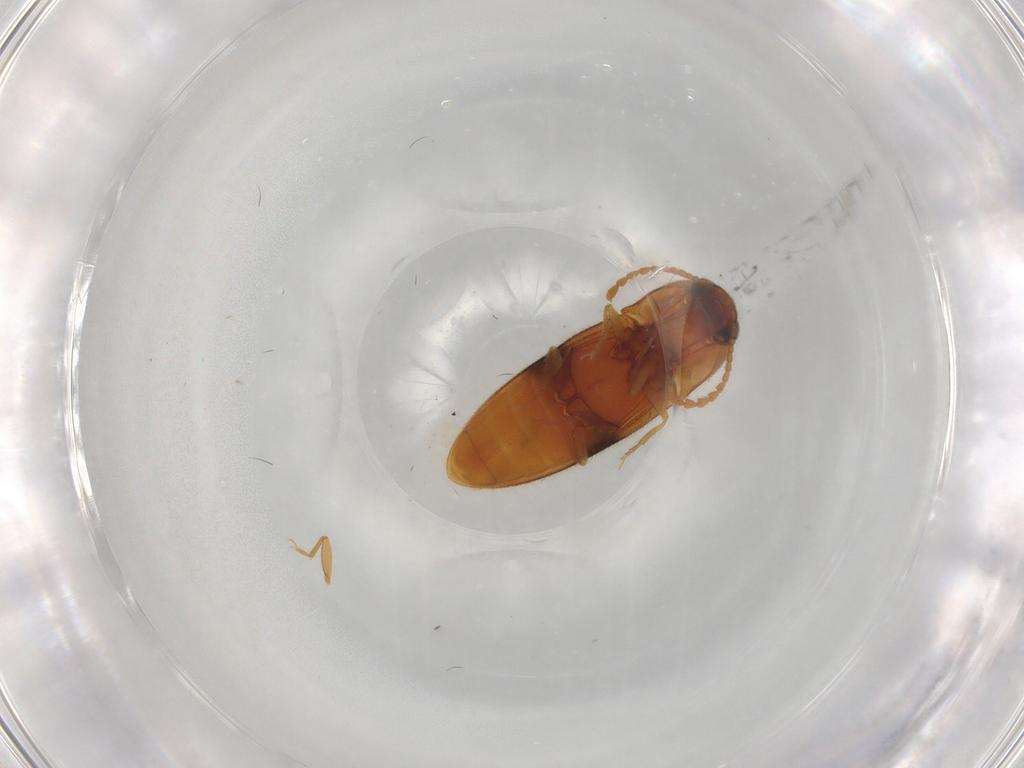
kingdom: Animalia
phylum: Arthropoda
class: Insecta
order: Coleoptera
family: Elateridae
